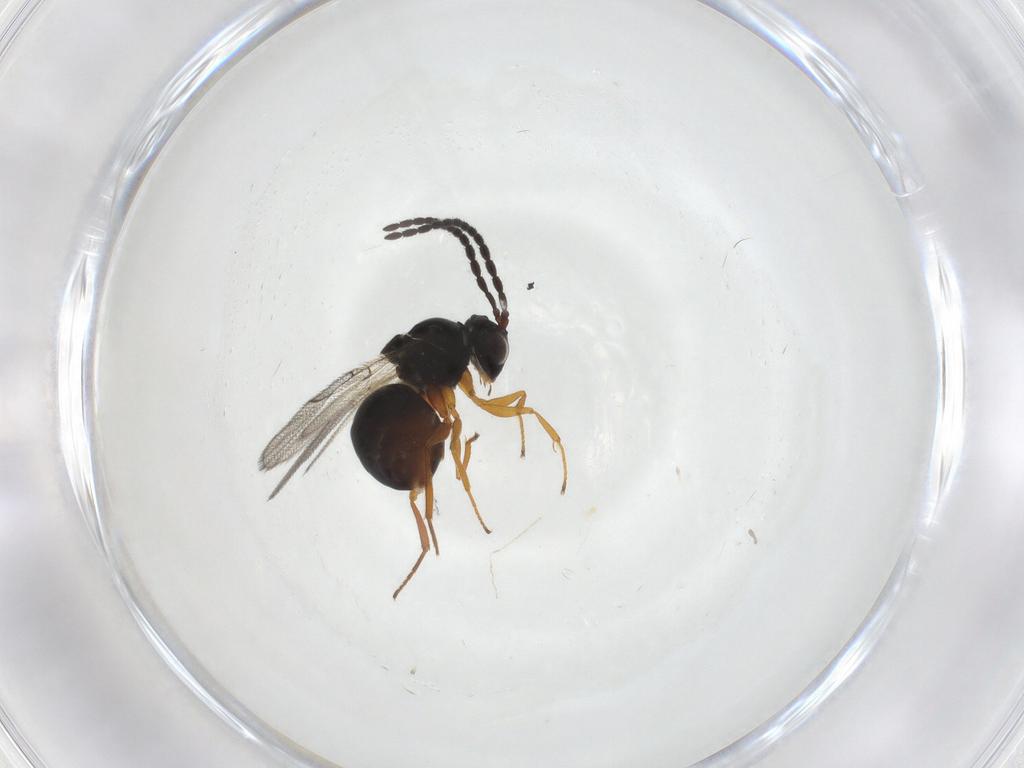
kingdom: Animalia
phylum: Arthropoda
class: Insecta
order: Hymenoptera
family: Figitidae
